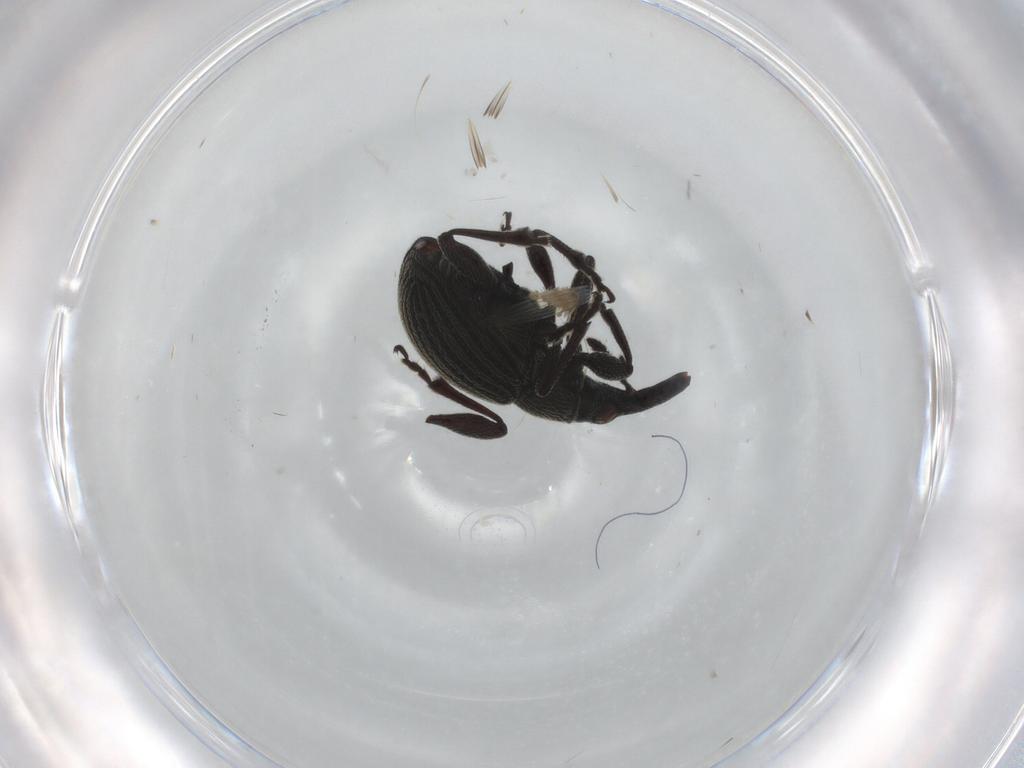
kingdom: Animalia
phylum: Arthropoda
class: Insecta
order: Coleoptera
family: Brentidae
